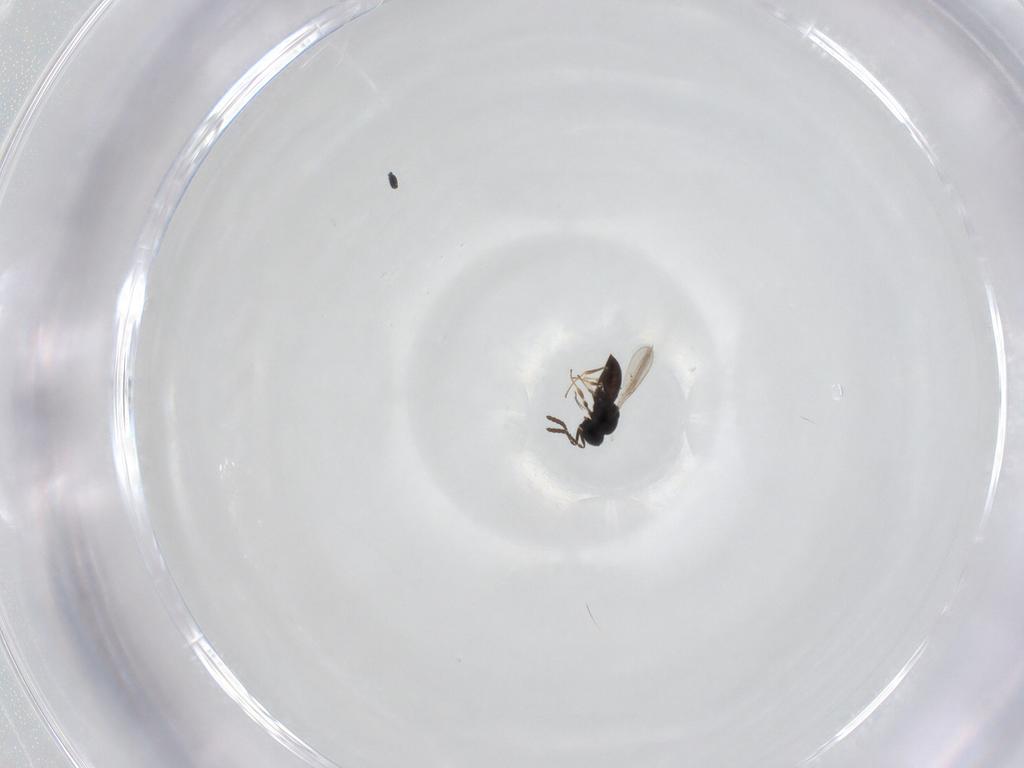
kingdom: Animalia
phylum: Arthropoda
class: Insecta
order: Hymenoptera
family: Scelionidae
